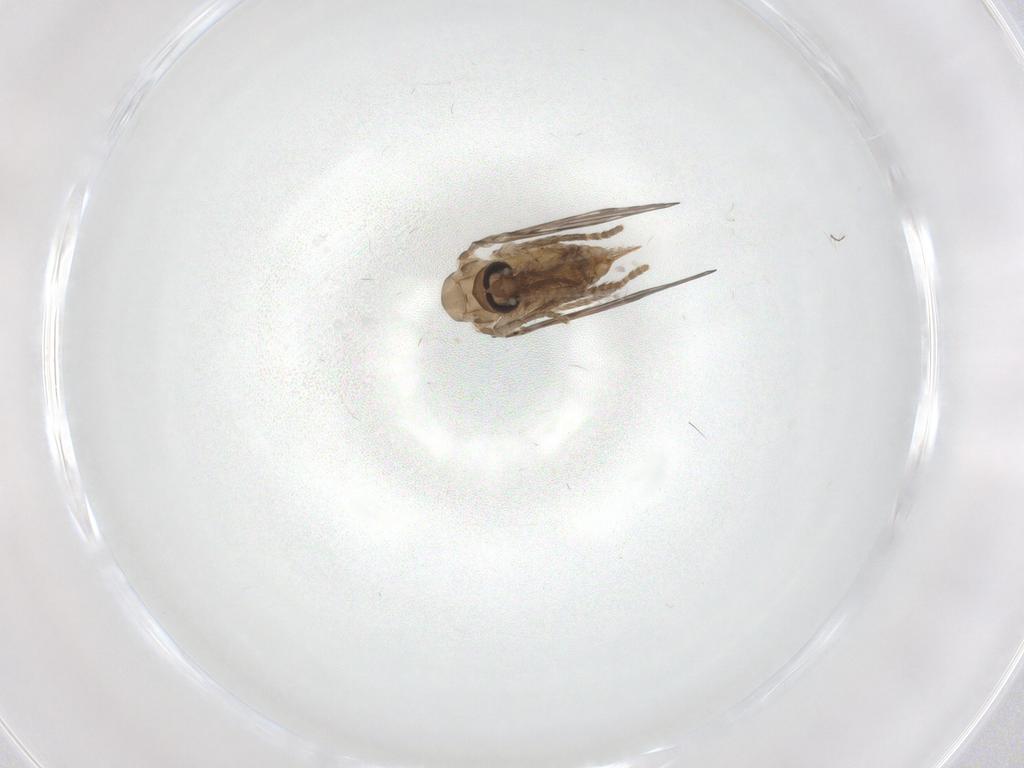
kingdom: Animalia
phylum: Arthropoda
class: Insecta
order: Diptera
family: Psychodidae
